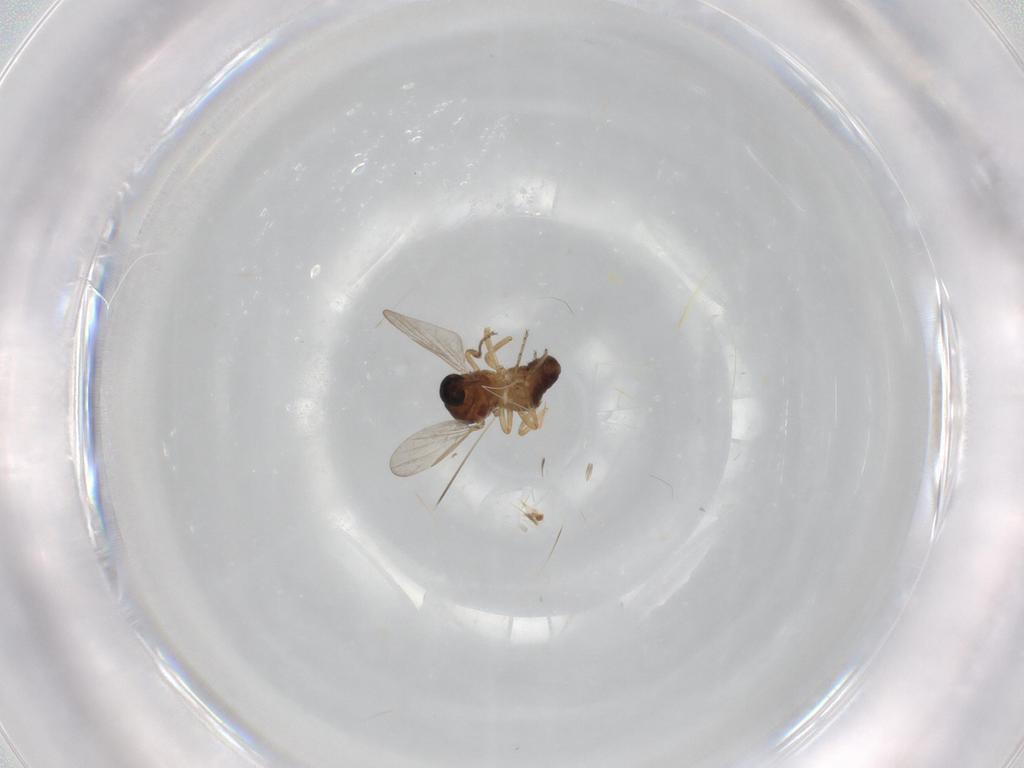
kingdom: Animalia
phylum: Arthropoda
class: Insecta
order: Diptera
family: Ceratopogonidae
